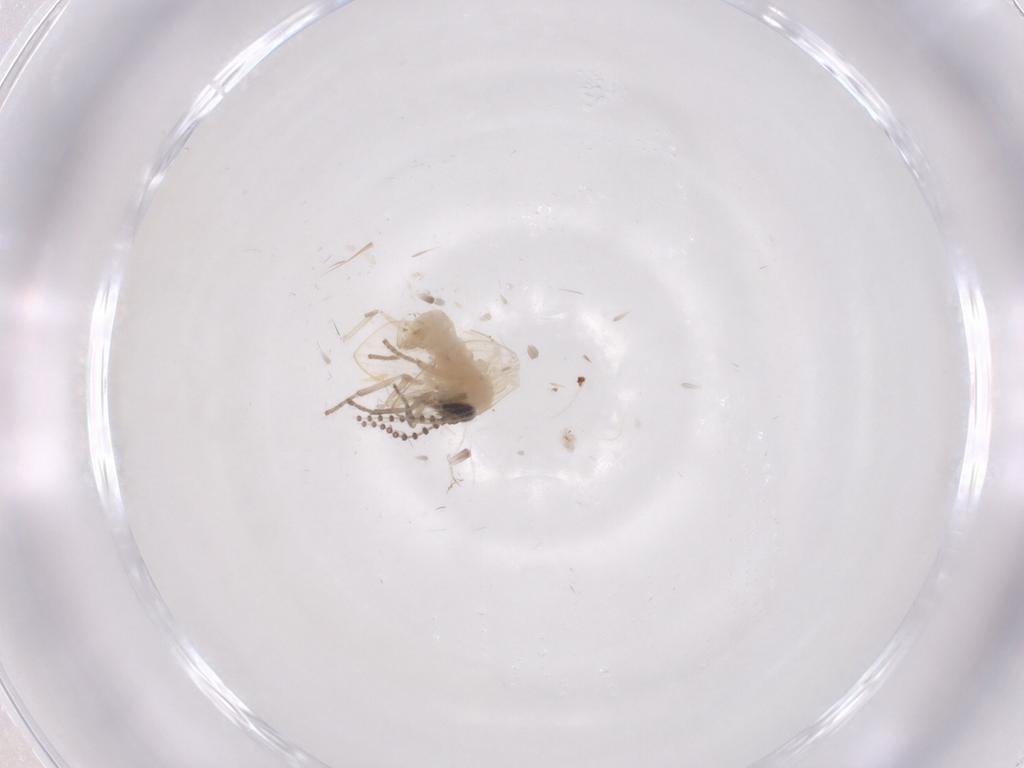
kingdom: Animalia
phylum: Arthropoda
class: Insecta
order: Diptera
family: Psychodidae
